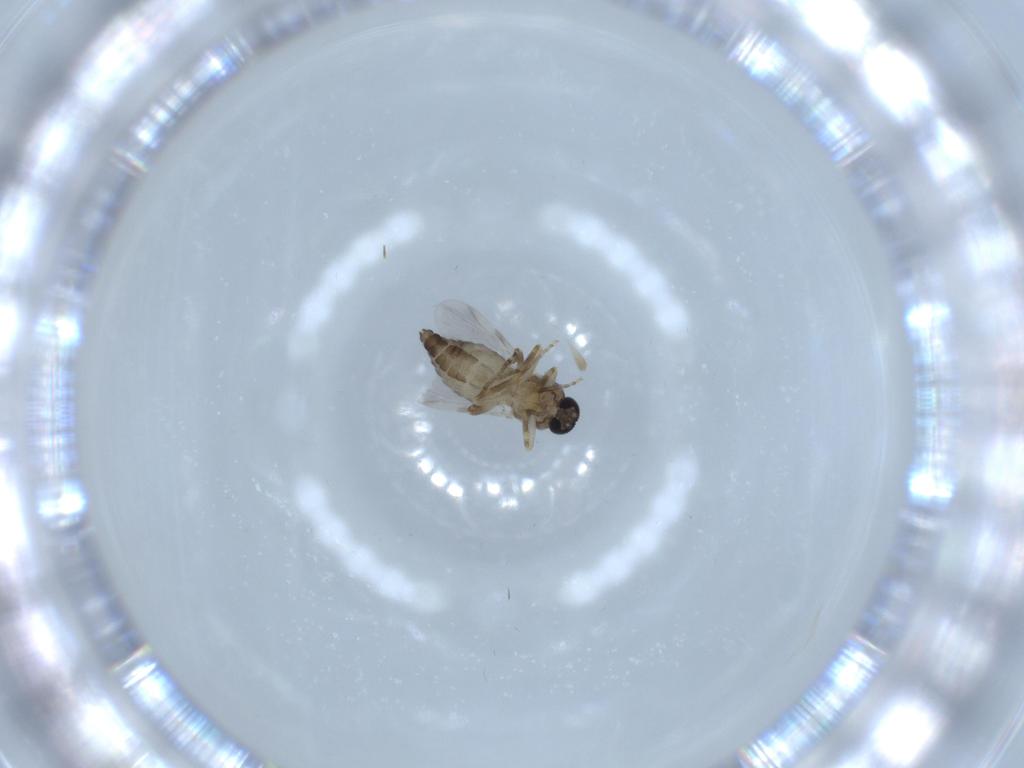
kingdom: Animalia
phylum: Arthropoda
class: Insecta
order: Diptera
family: Ceratopogonidae
